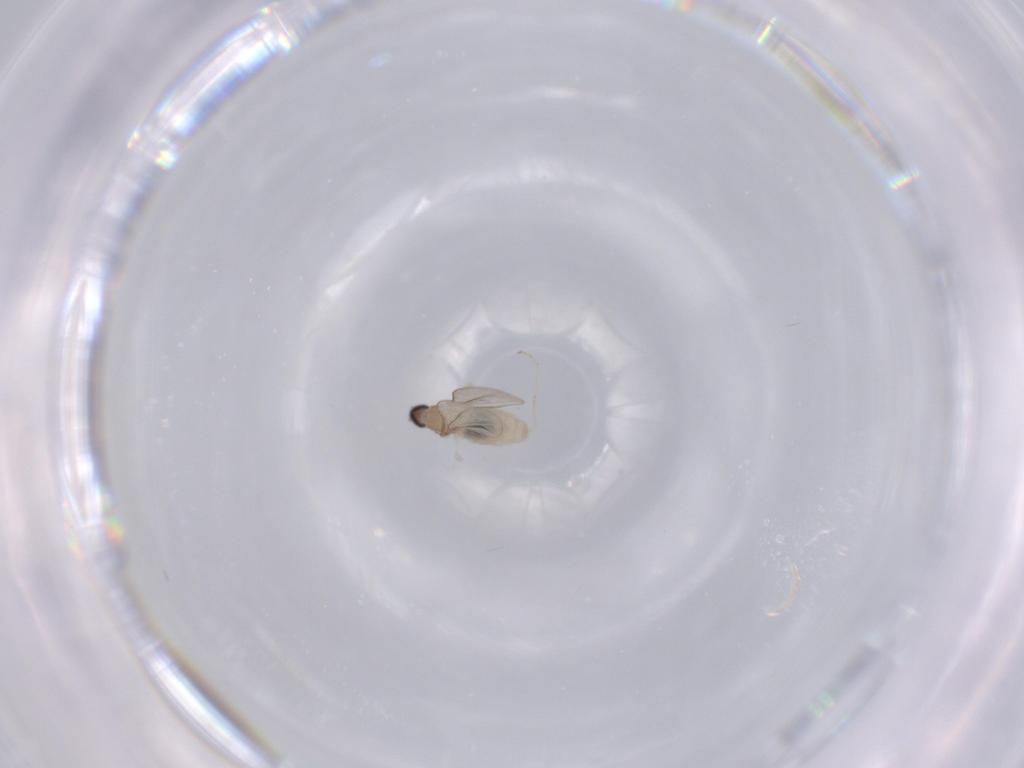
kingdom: Animalia
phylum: Arthropoda
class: Insecta
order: Diptera
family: Cecidomyiidae
